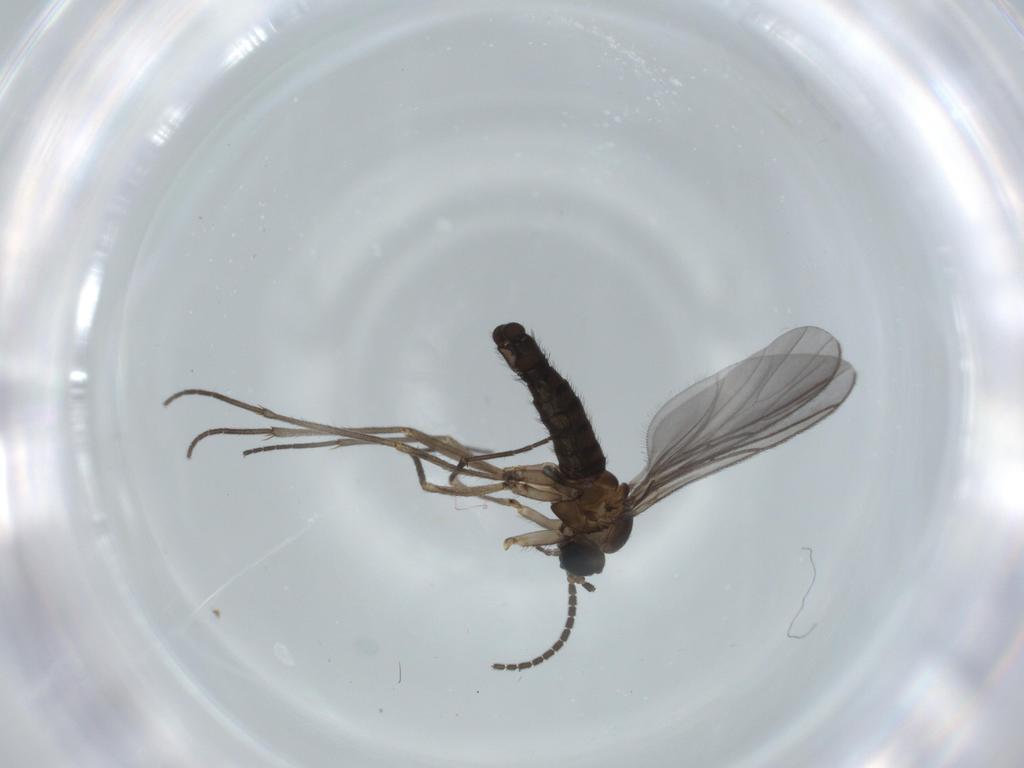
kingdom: Animalia
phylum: Arthropoda
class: Insecta
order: Diptera
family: Sciaridae
